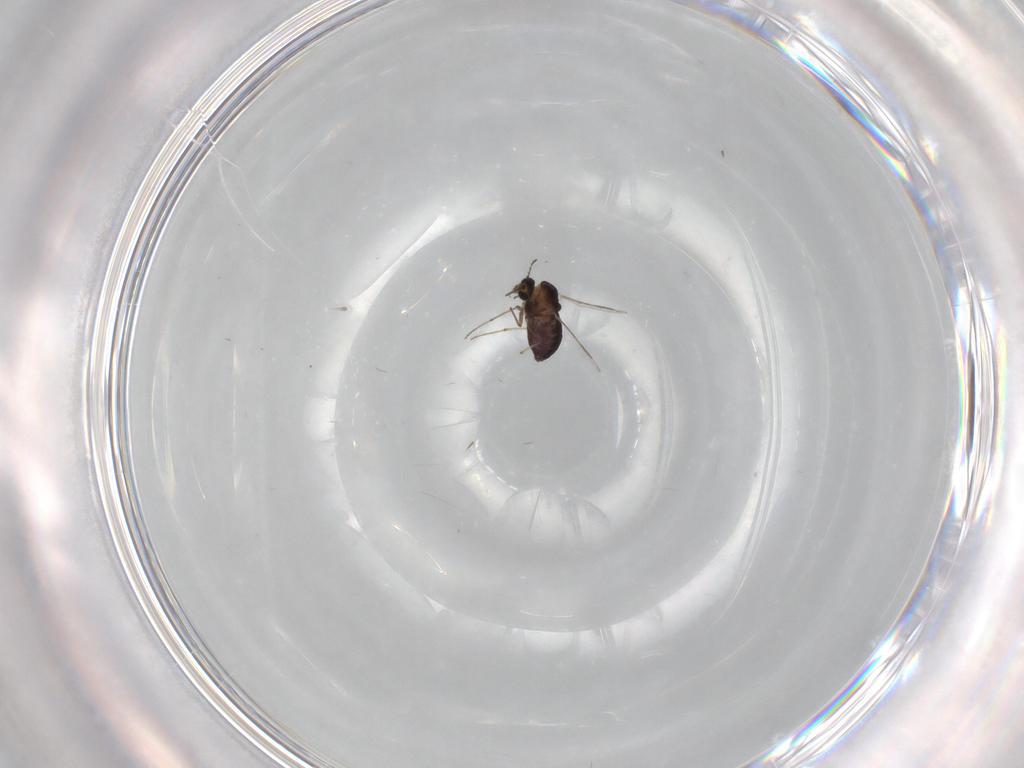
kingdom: Animalia
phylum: Arthropoda
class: Insecta
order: Diptera
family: Chironomidae
